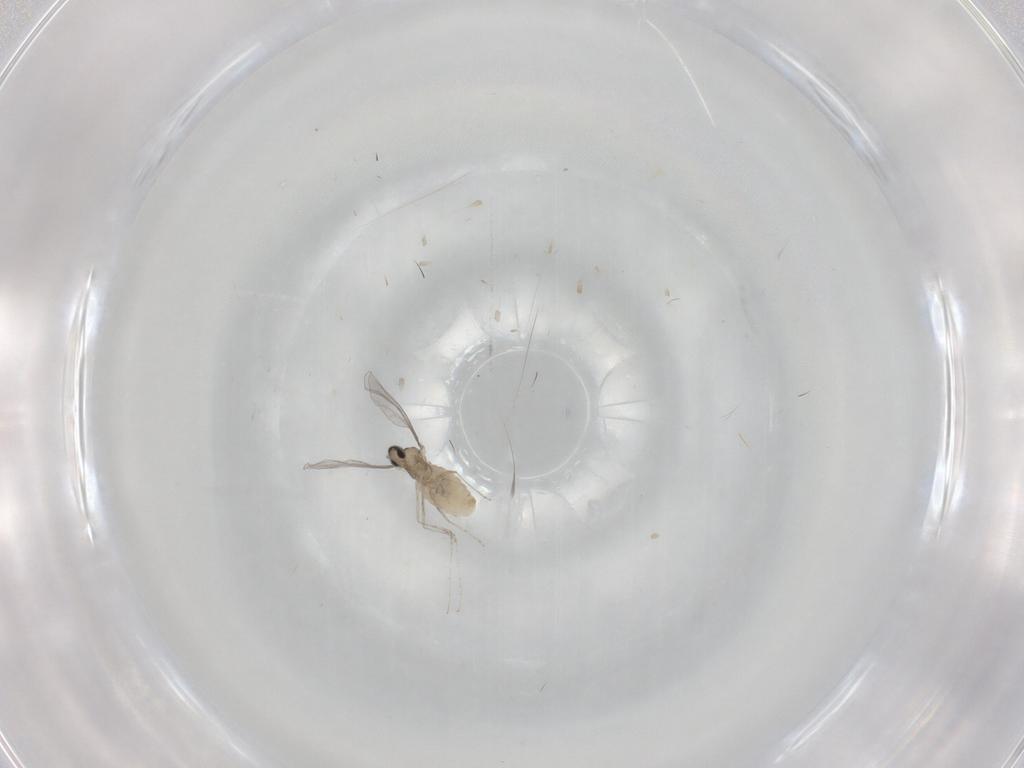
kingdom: Animalia
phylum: Arthropoda
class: Insecta
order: Diptera
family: Cecidomyiidae
